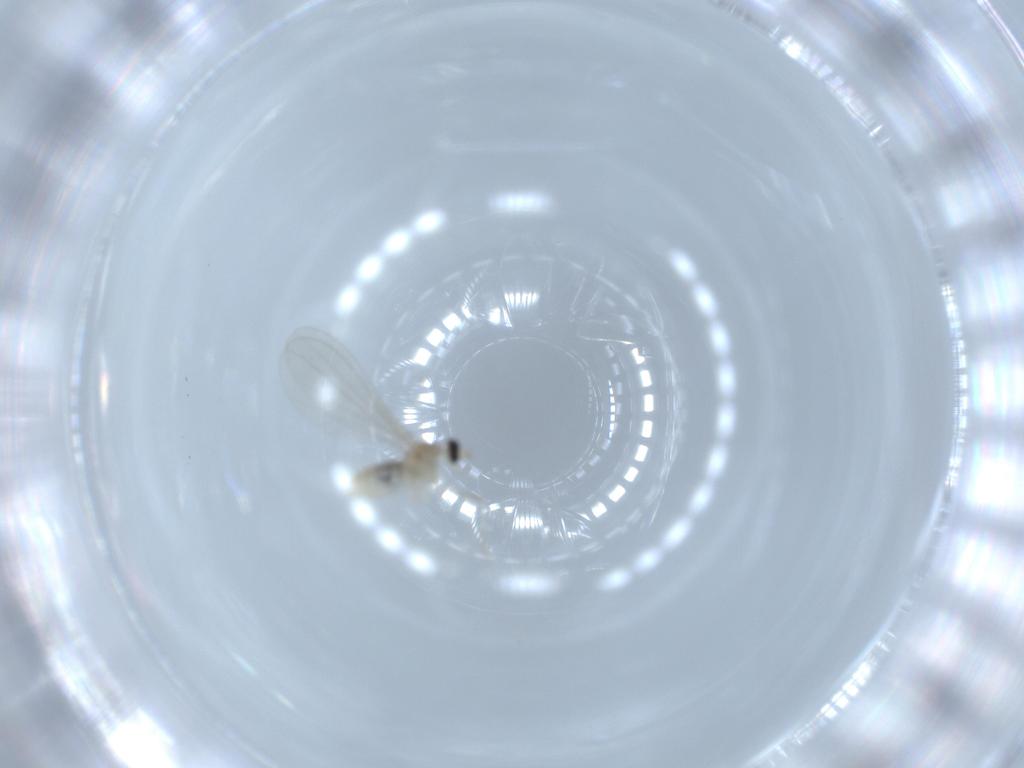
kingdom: Animalia
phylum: Arthropoda
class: Insecta
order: Diptera
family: Cecidomyiidae
